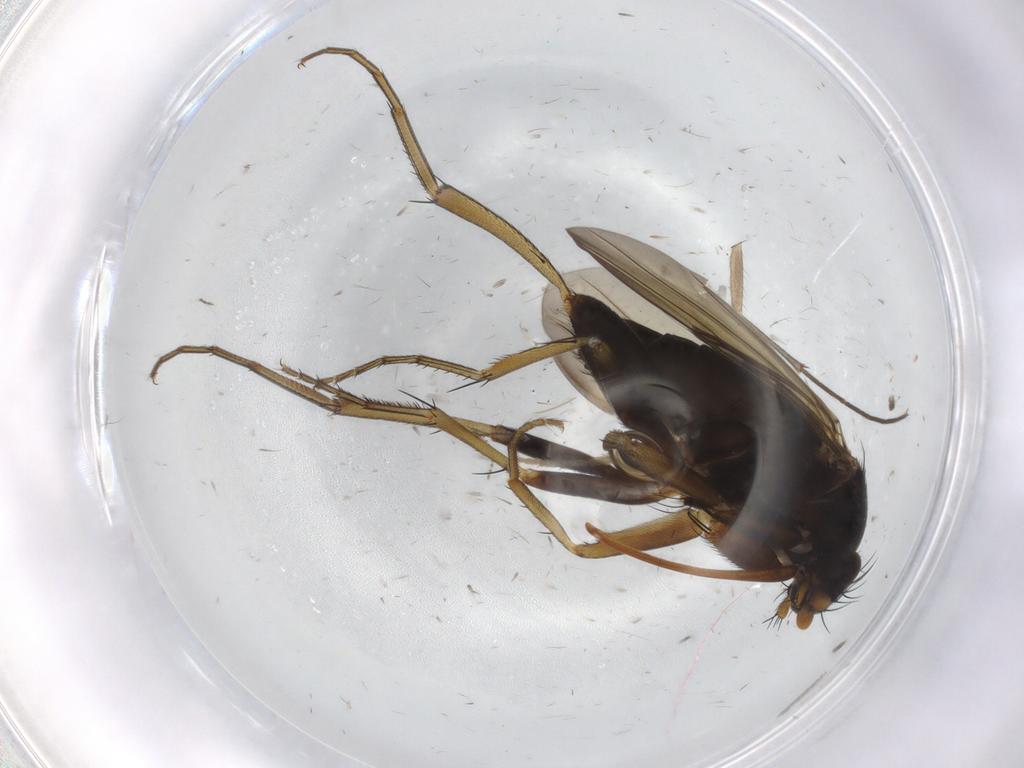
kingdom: Animalia
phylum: Arthropoda
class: Insecta
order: Diptera
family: Phoridae
